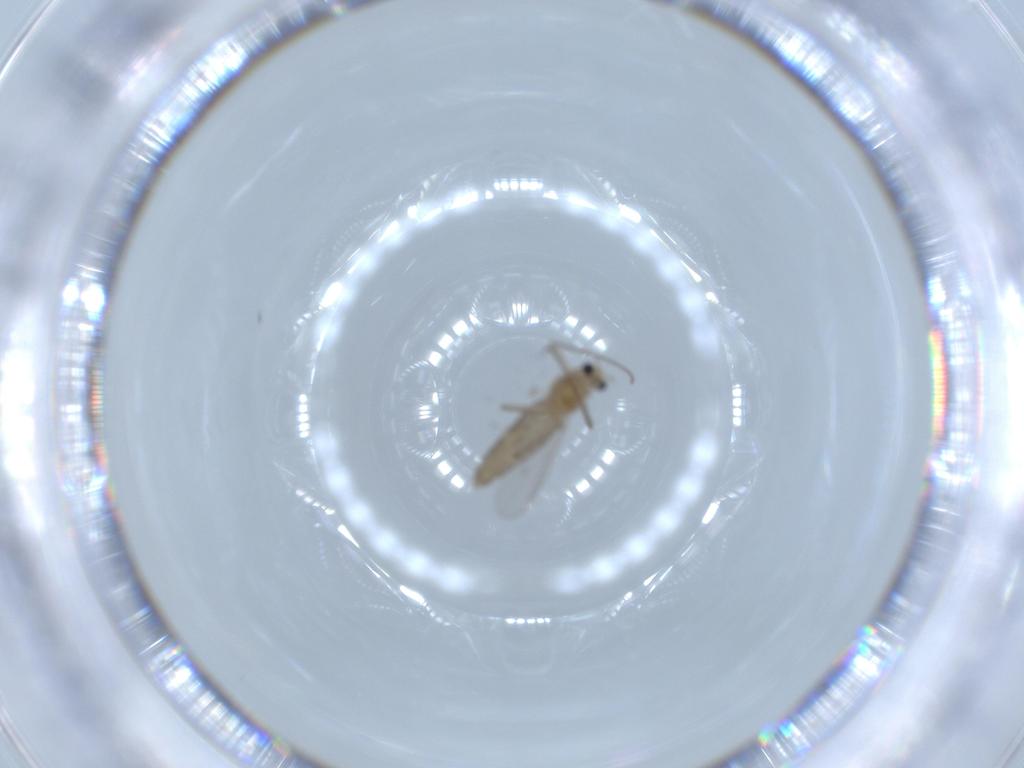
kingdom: Animalia
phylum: Arthropoda
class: Insecta
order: Diptera
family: Chironomidae
